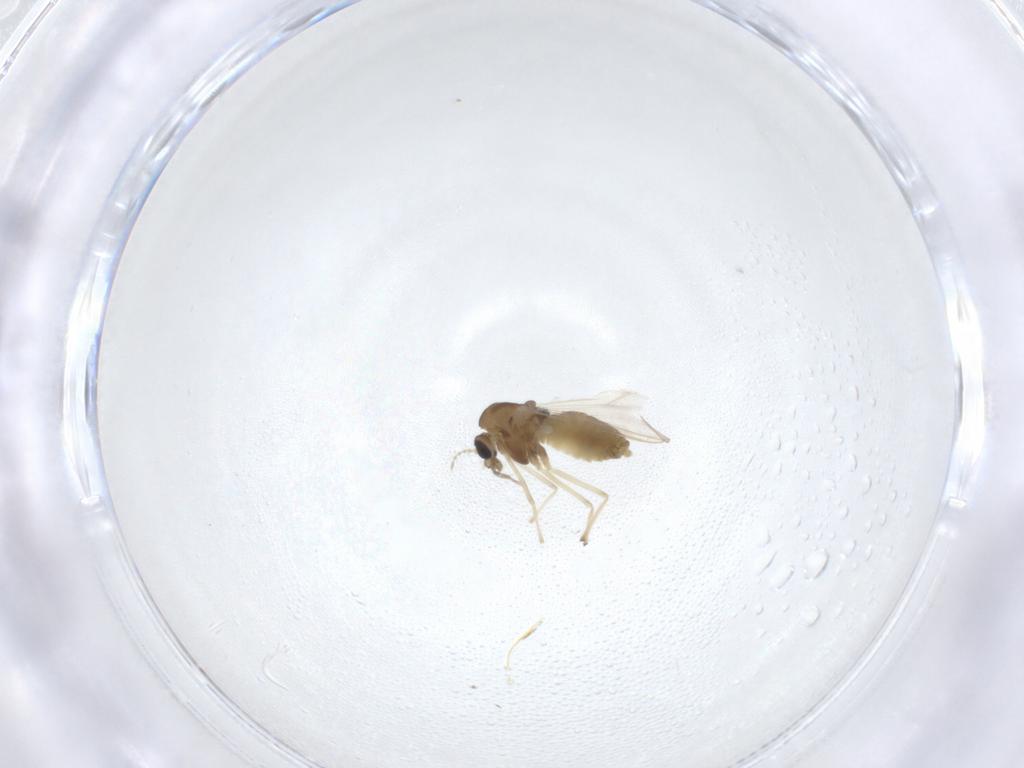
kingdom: Animalia
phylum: Arthropoda
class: Insecta
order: Diptera
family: Chironomidae
